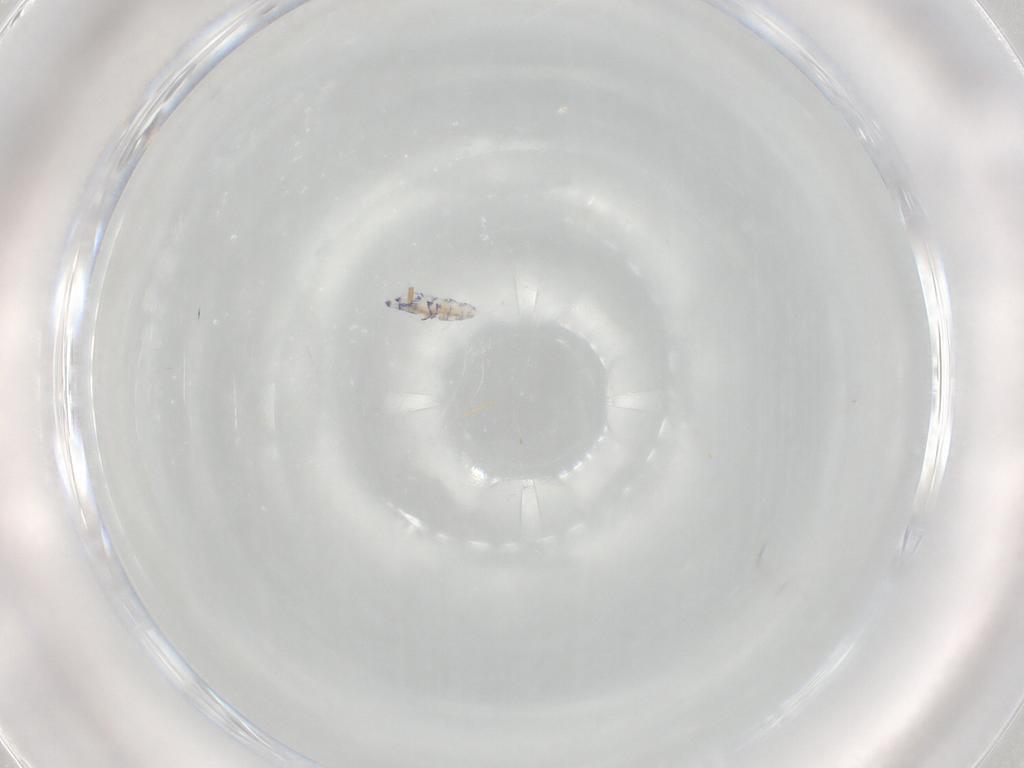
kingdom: Animalia
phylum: Arthropoda
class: Collembola
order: Entomobryomorpha
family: Entomobryidae
